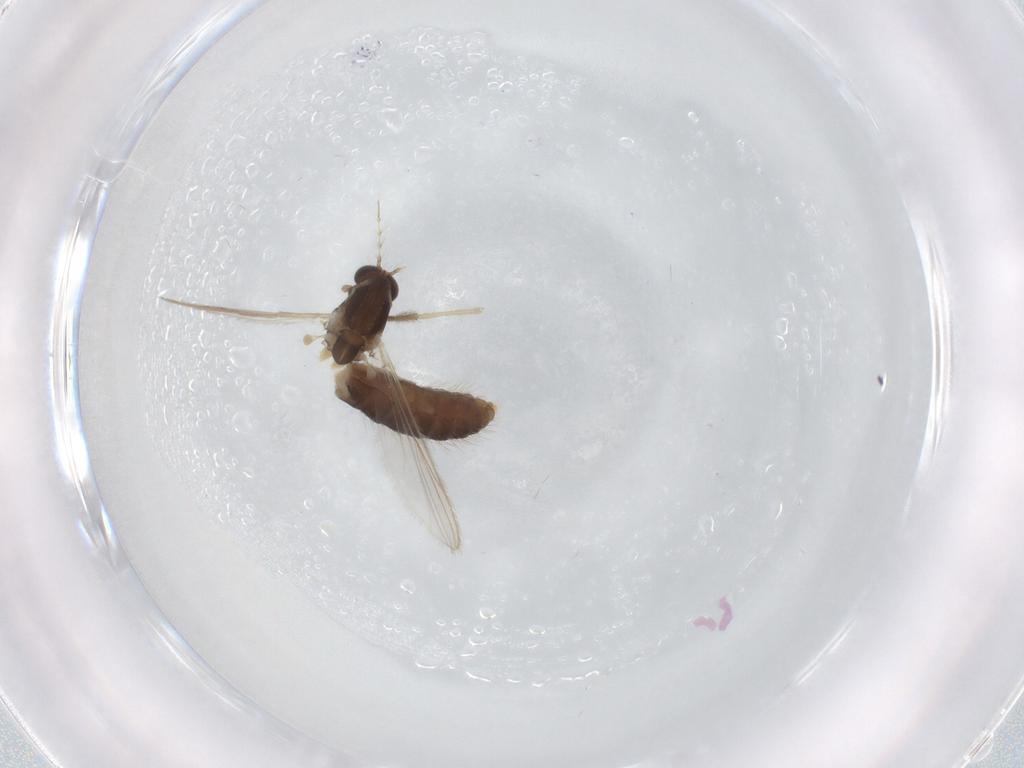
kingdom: Animalia
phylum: Arthropoda
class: Insecta
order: Diptera
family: Chironomidae
